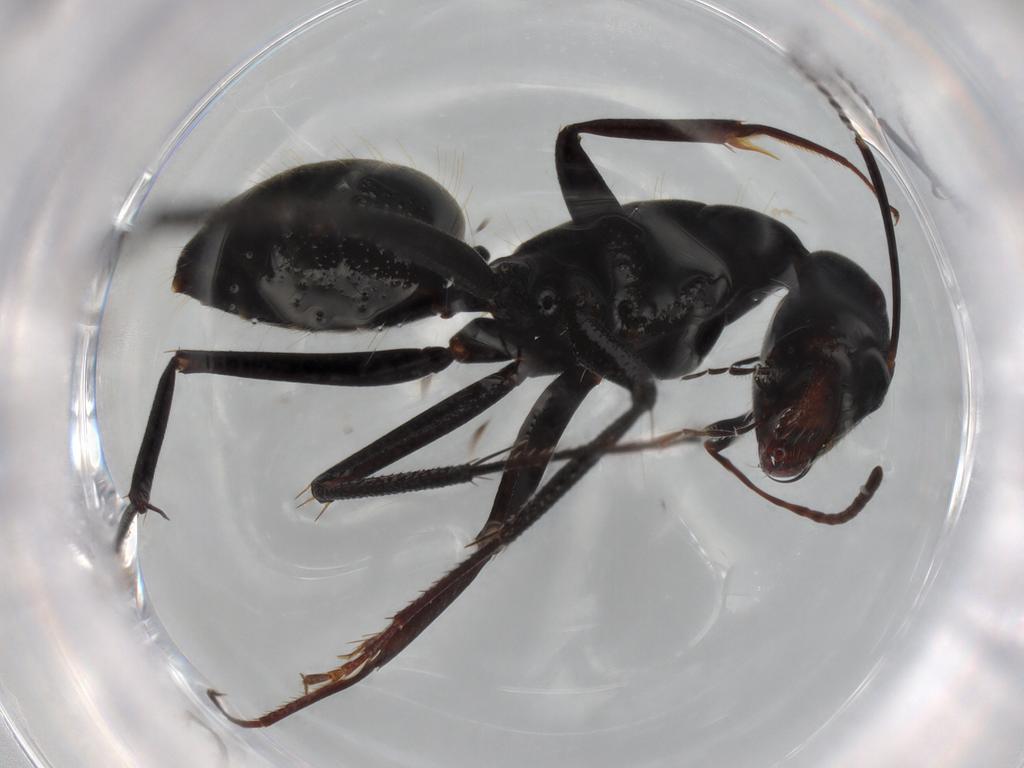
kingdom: Animalia
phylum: Arthropoda
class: Insecta
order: Hymenoptera
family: Formicidae
